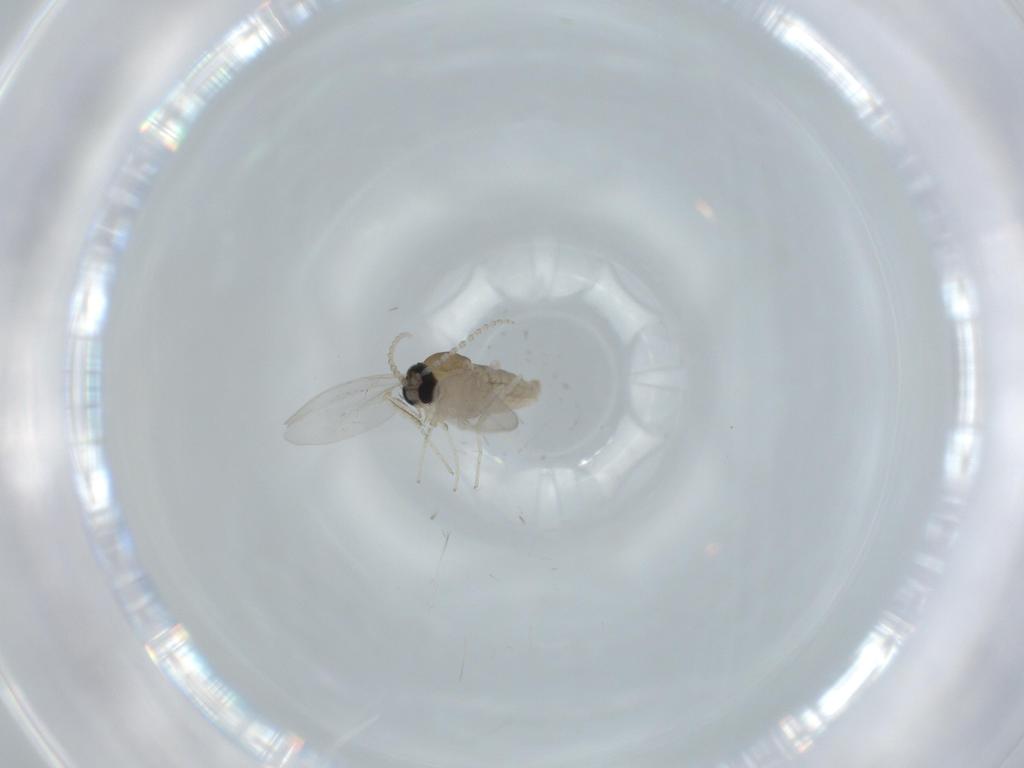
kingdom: Animalia
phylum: Arthropoda
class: Insecta
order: Diptera
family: Cecidomyiidae
